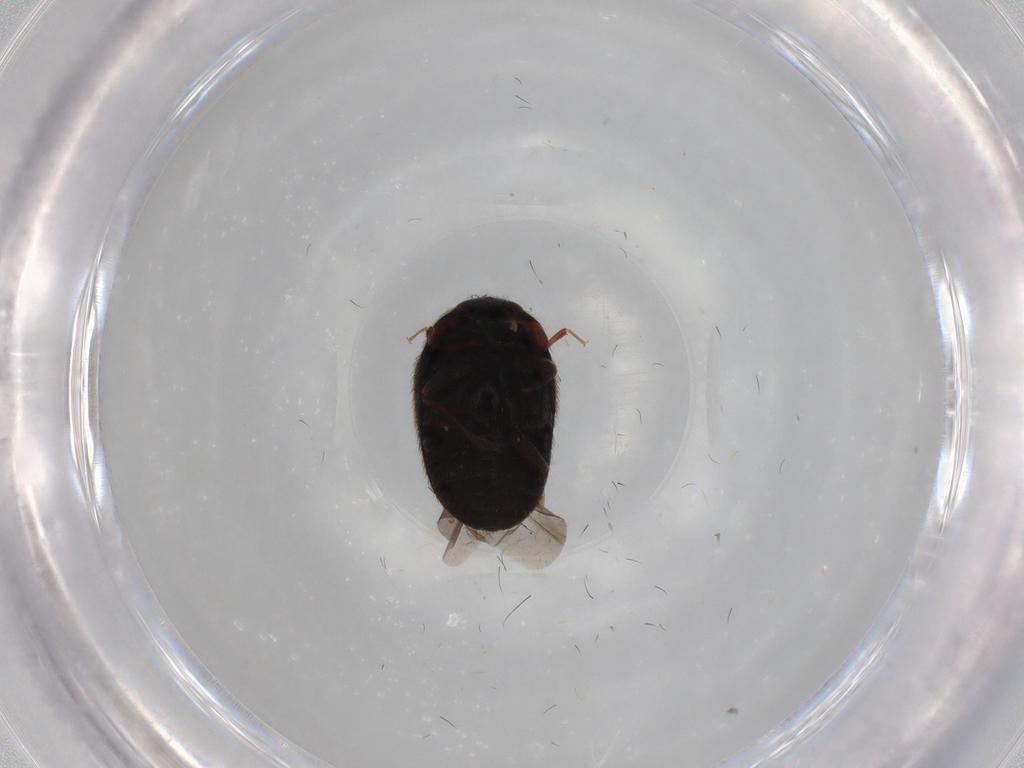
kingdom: Animalia
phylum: Arthropoda
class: Insecta
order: Coleoptera
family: Dermestidae
